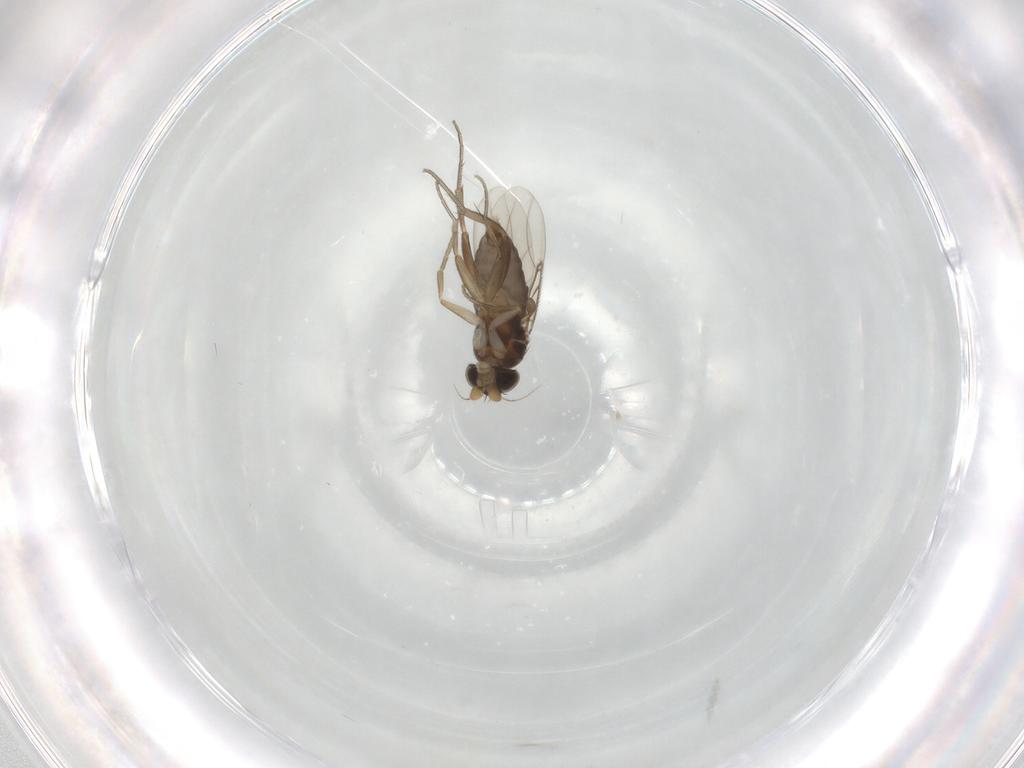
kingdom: Animalia
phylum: Arthropoda
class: Insecta
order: Diptera
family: Phoridae
